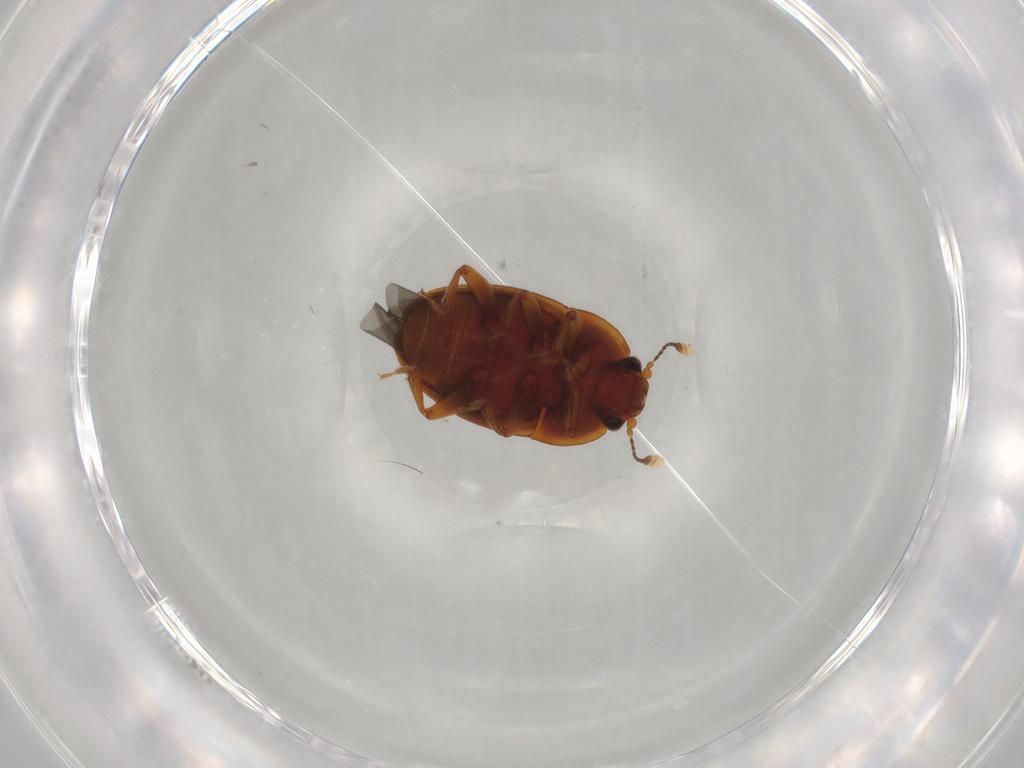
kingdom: Animalia
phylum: Arthropoda
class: Insecta
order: Coleoptera
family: Nitidulidae
